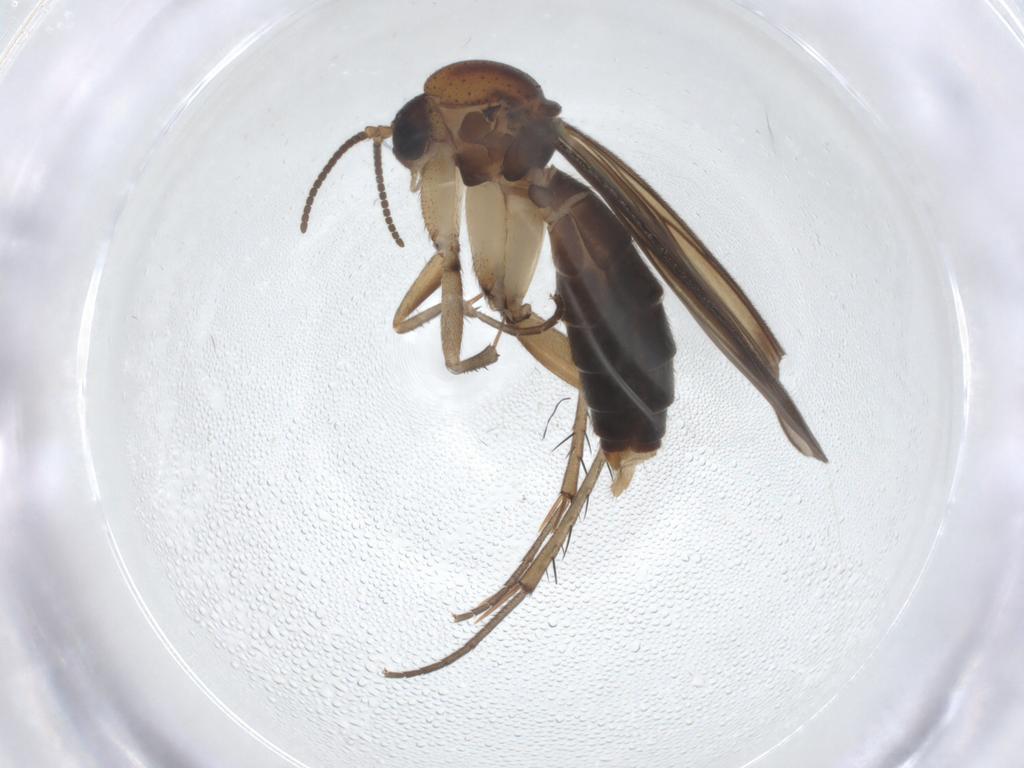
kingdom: Animalia
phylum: Arthropoda
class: Insecta
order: Diptera
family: Mycetophilidae
